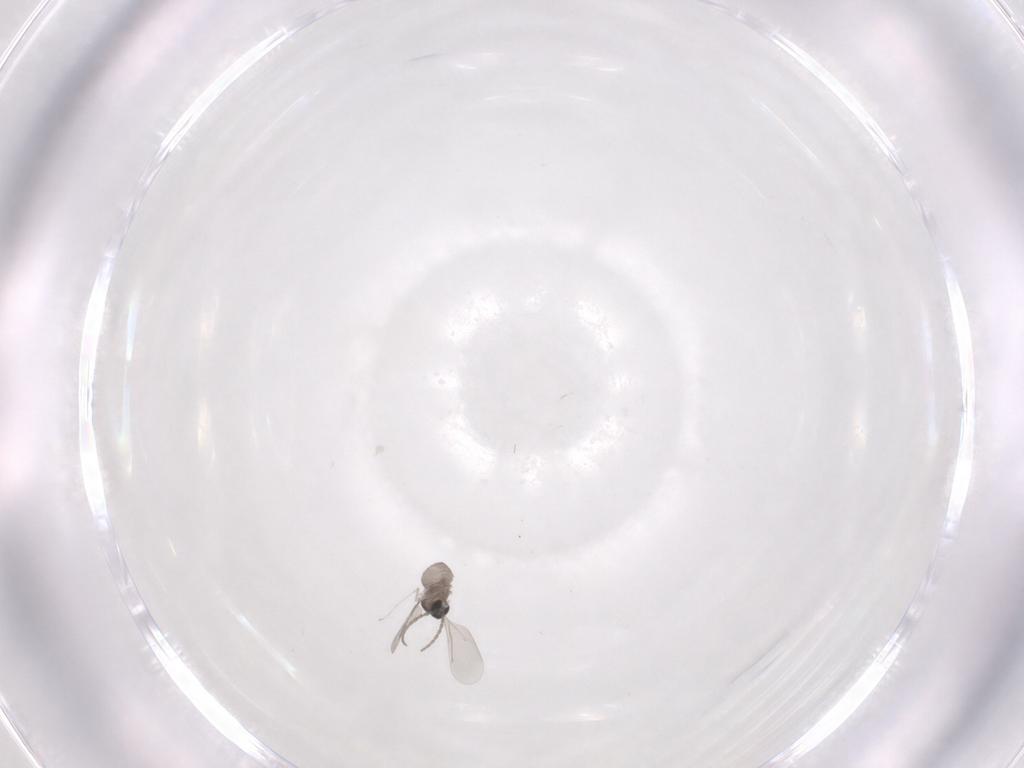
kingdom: Animalia
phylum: Arthropoda
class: Insecta
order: Diptera
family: Cecidomyiidae
